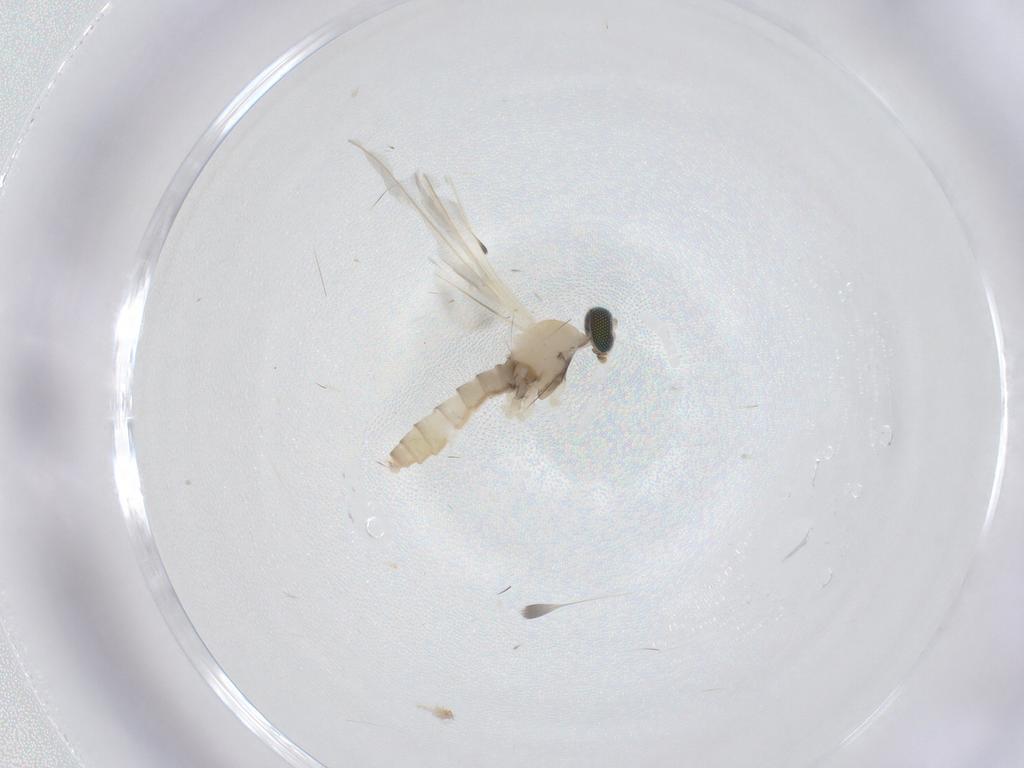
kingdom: Animalia
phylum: Arthropoda
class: Insecta
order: Diptera
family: Cecidomyiidae
